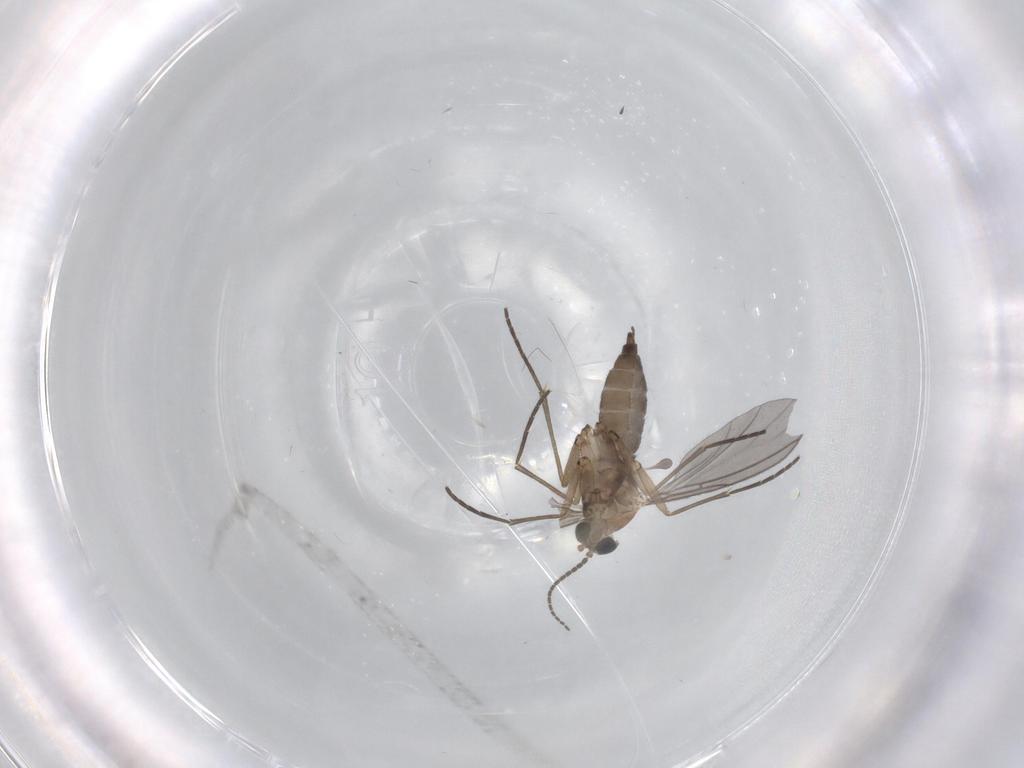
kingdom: Animalia
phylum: Arthropoda
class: Insecta
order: Diptera
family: Sciaridae
